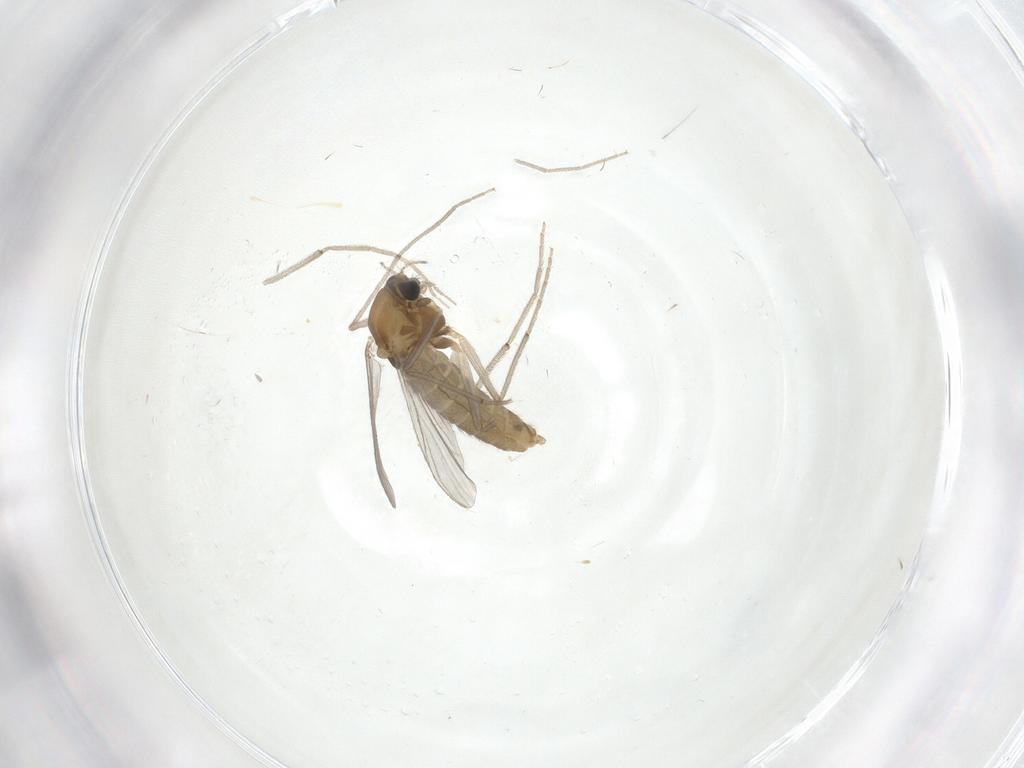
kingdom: Animalia
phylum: Arthropoda
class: Insecta
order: Diptera
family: Chironomidae
